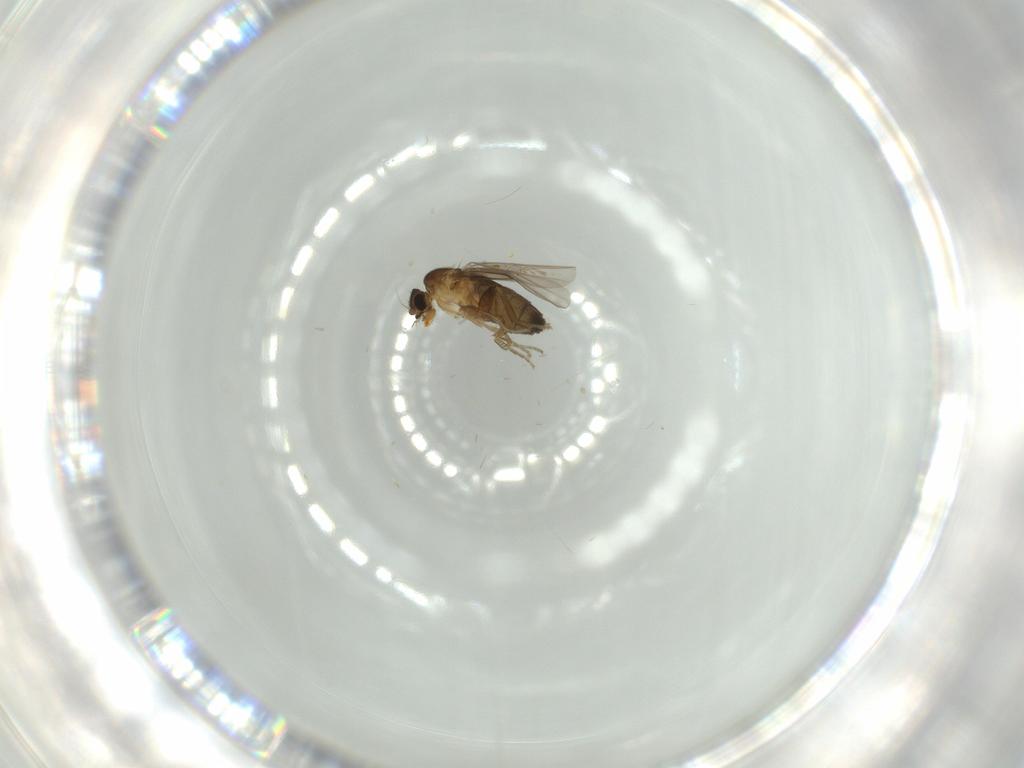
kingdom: Animalia
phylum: Arthropoda
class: Insecta
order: Diptera
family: Phoridae
